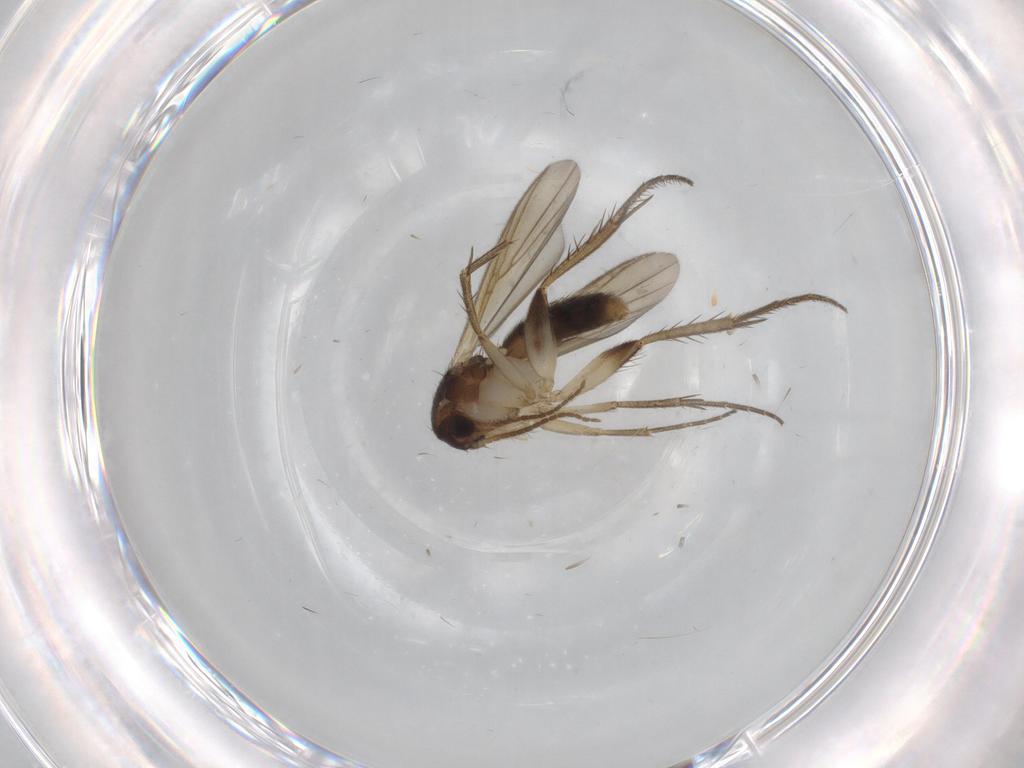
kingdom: Animalia
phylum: Arthropoda
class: Insecta
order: Diptera
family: Mycetophilidae
